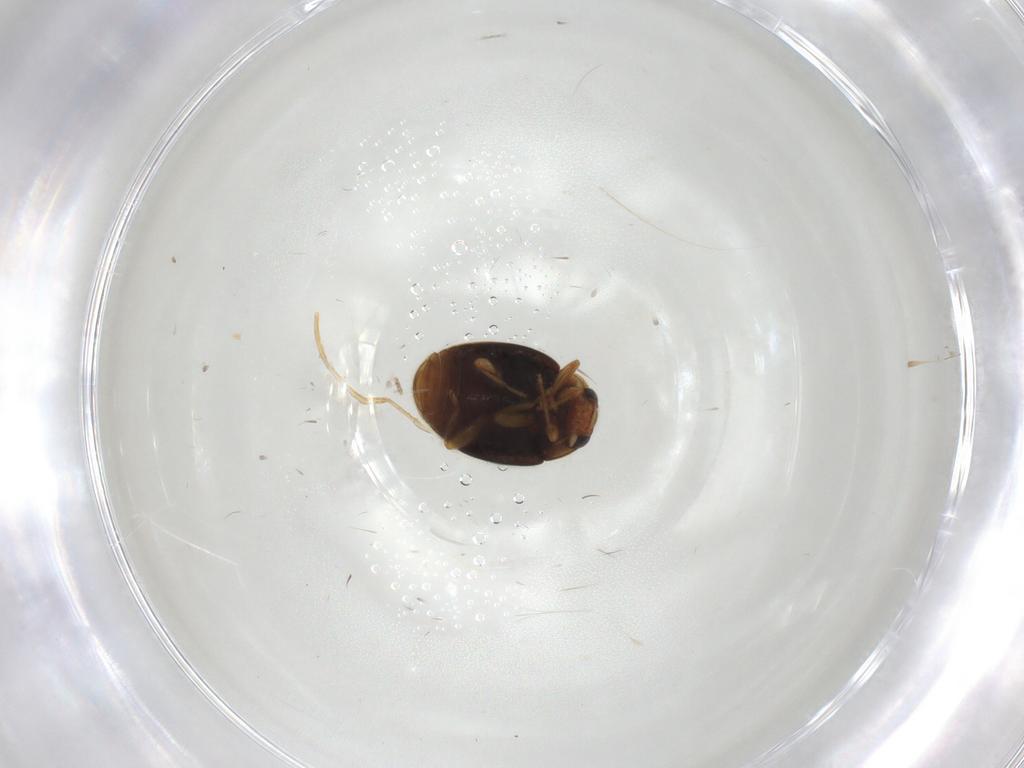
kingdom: Animalia
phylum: Arthropoda
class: Insecta
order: Coleoptera
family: Coccinellidae
